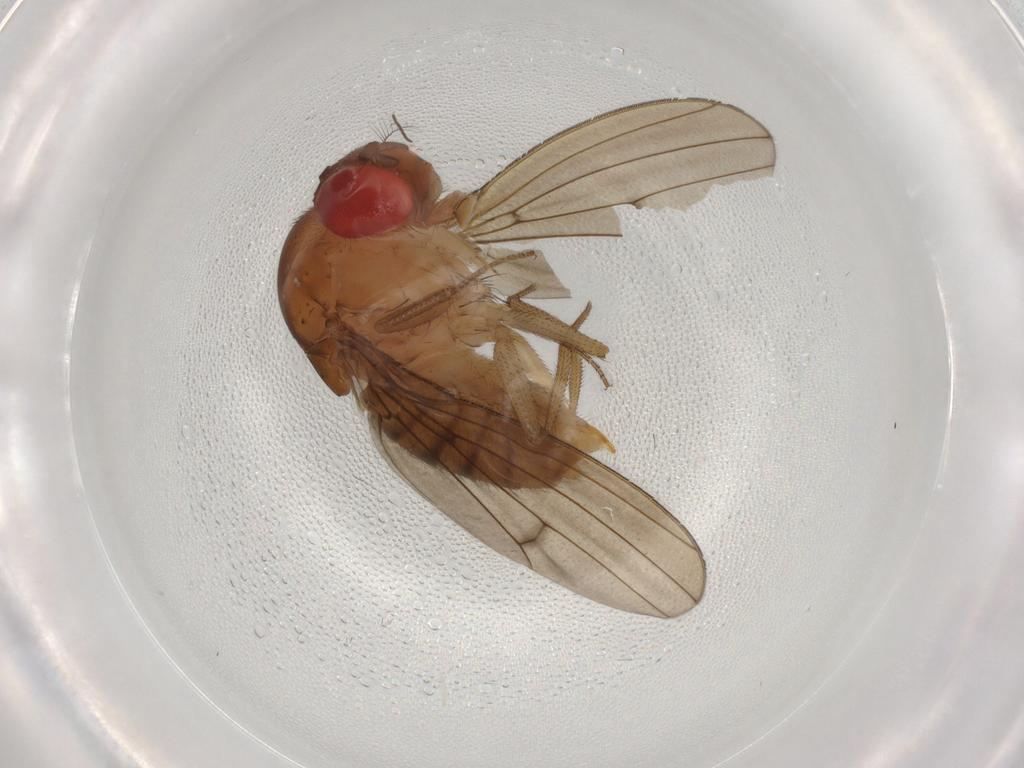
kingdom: Animalia
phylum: Arthropoda
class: Insecta
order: Diptera
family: Drosophilidae
